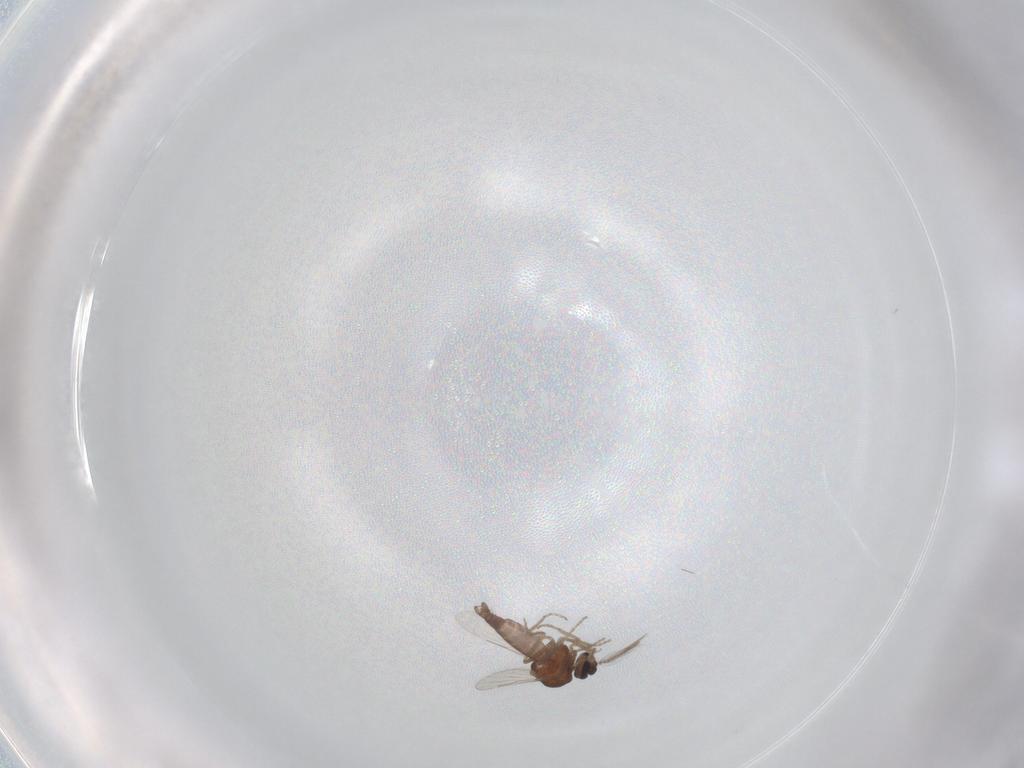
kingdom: Animalia
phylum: Arthropoda
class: Insecta
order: Diptera
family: Ceratopogonidae
